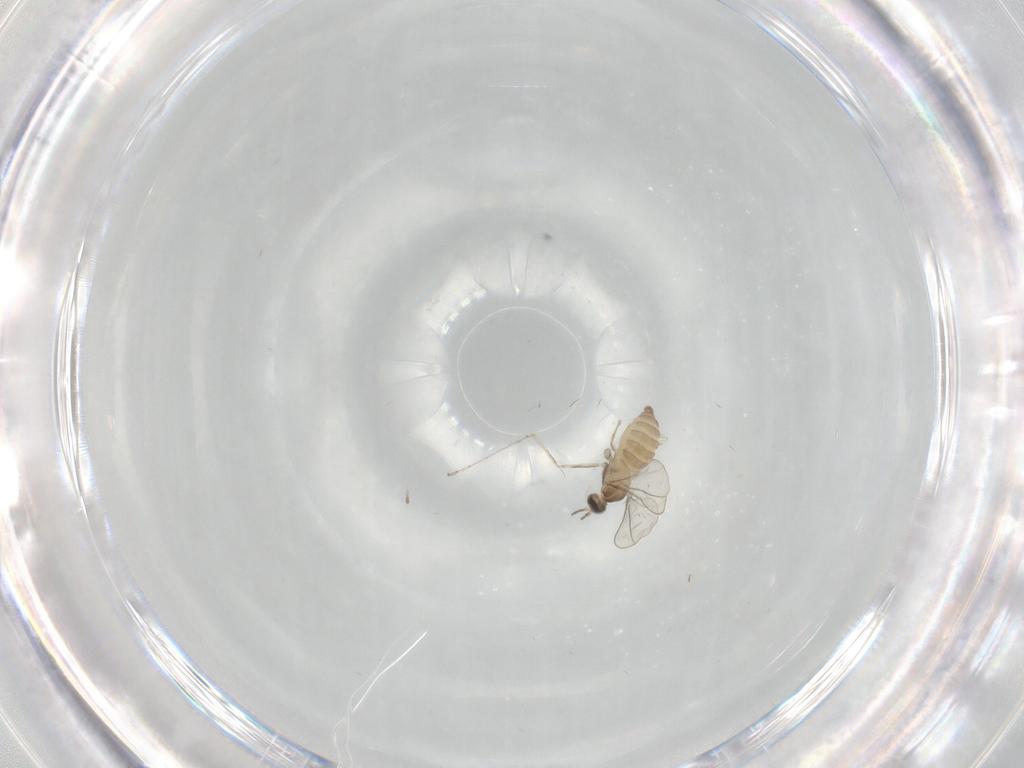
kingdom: Animalia
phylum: Arthropoda
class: Insecta
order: Diptera
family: Cecidomyiidae
